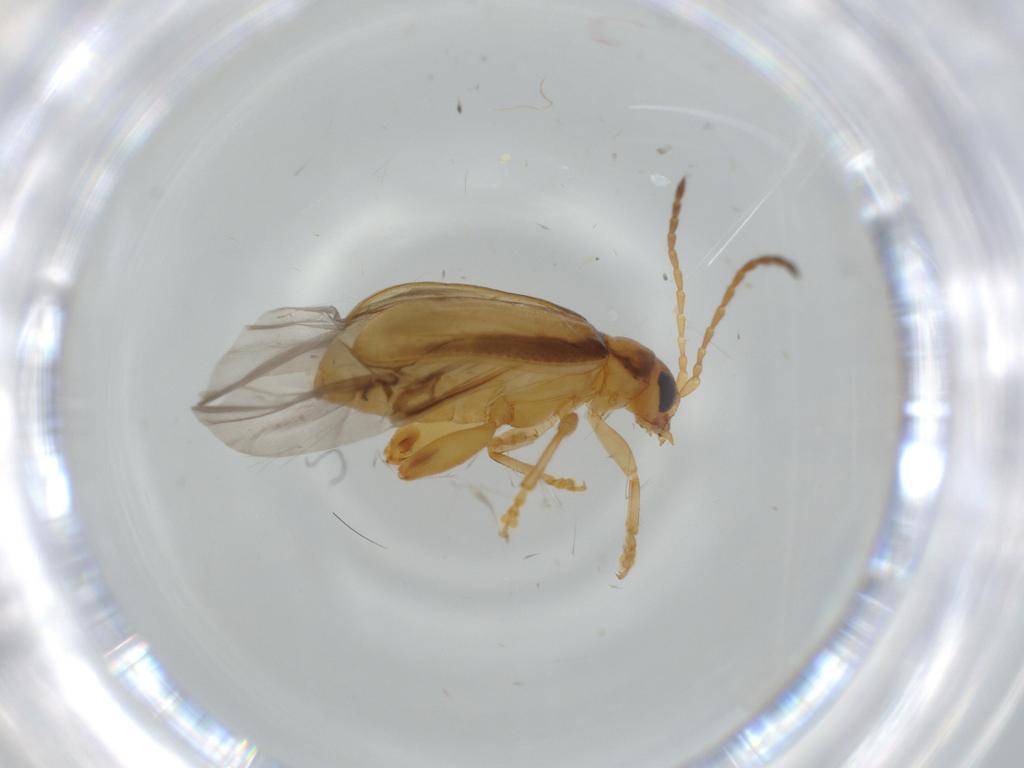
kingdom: Animalia
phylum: Arthropoda
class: Insecta
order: Coleoptera
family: Chrysomelidae
